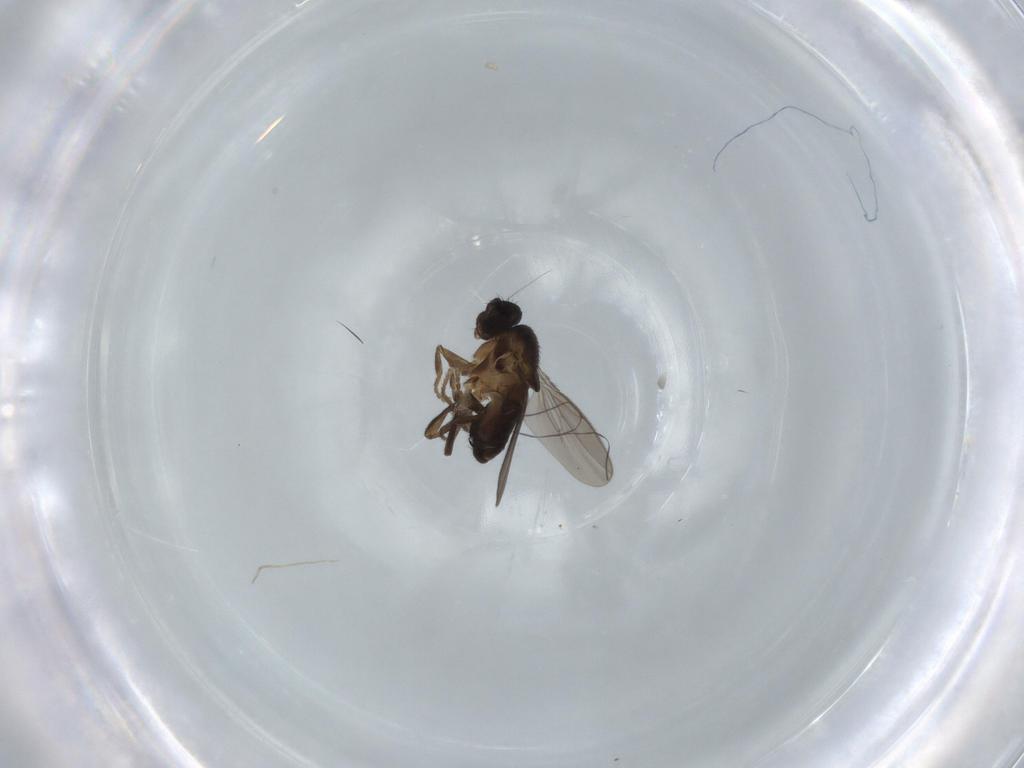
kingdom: Animalia
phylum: Arthropoda
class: Insecta
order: Diptera
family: Sphaeroceridae
